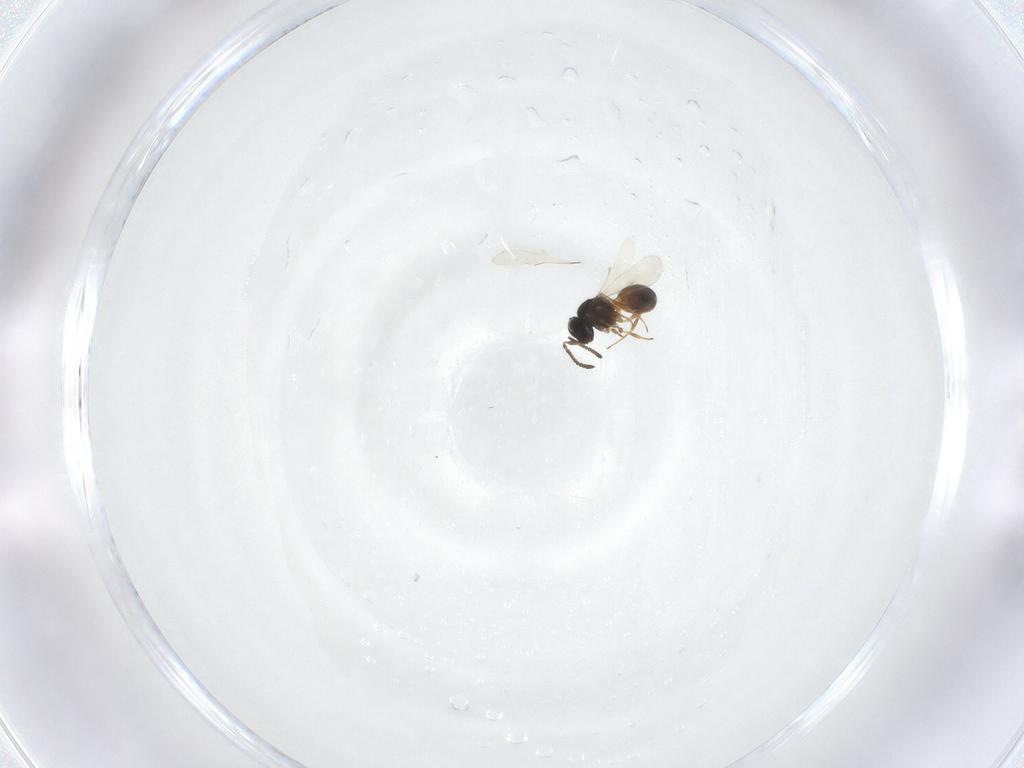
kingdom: Animalia
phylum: Arthropoda
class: Insecta
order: Hymenoptera
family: Scelionidae
